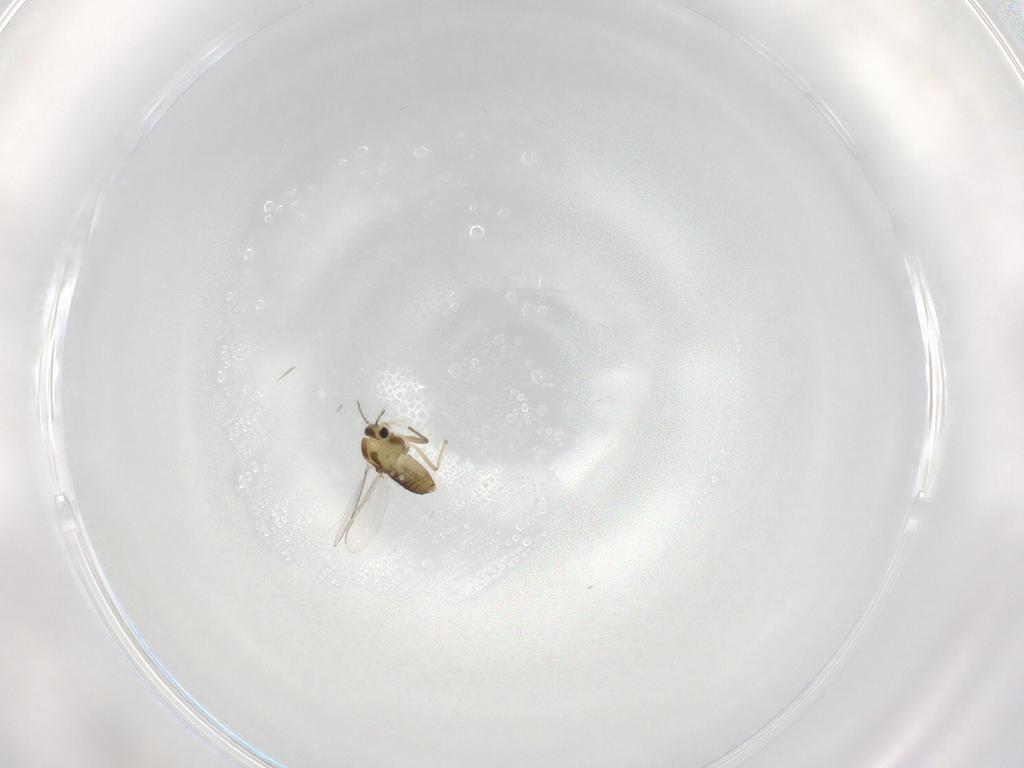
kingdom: Animalia
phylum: Arthropoda
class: Insecta
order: Diptera
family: Chironomidae
